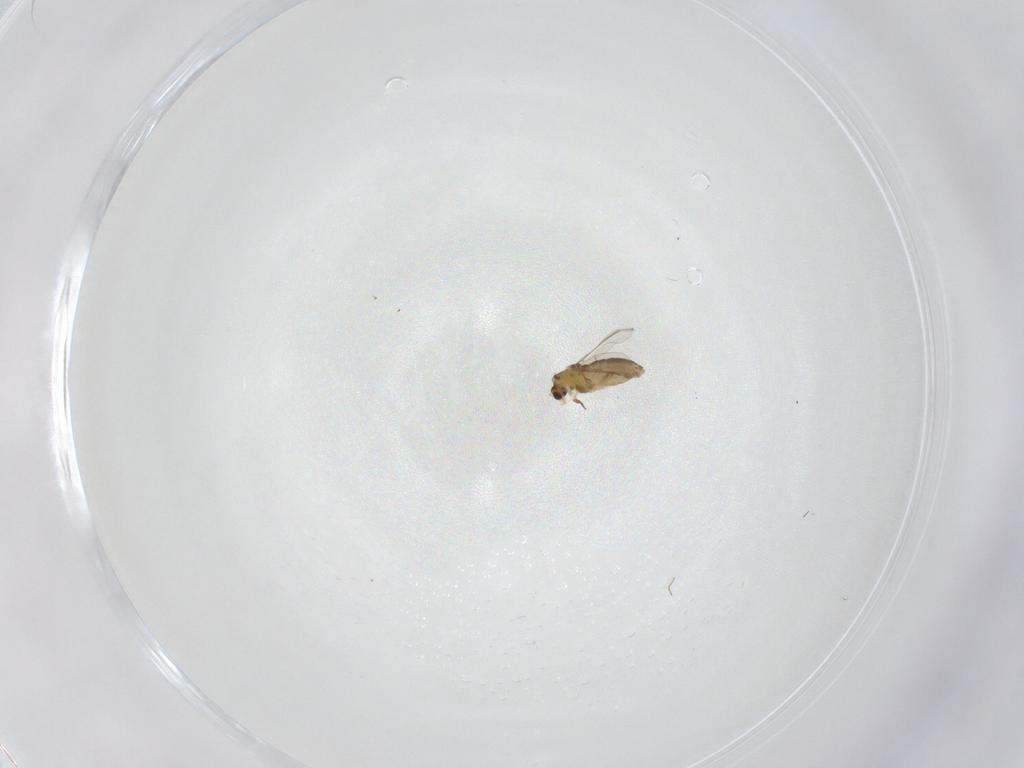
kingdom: Animalia
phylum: Arthropoda
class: Insecta
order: Diptera
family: Chironomidae
